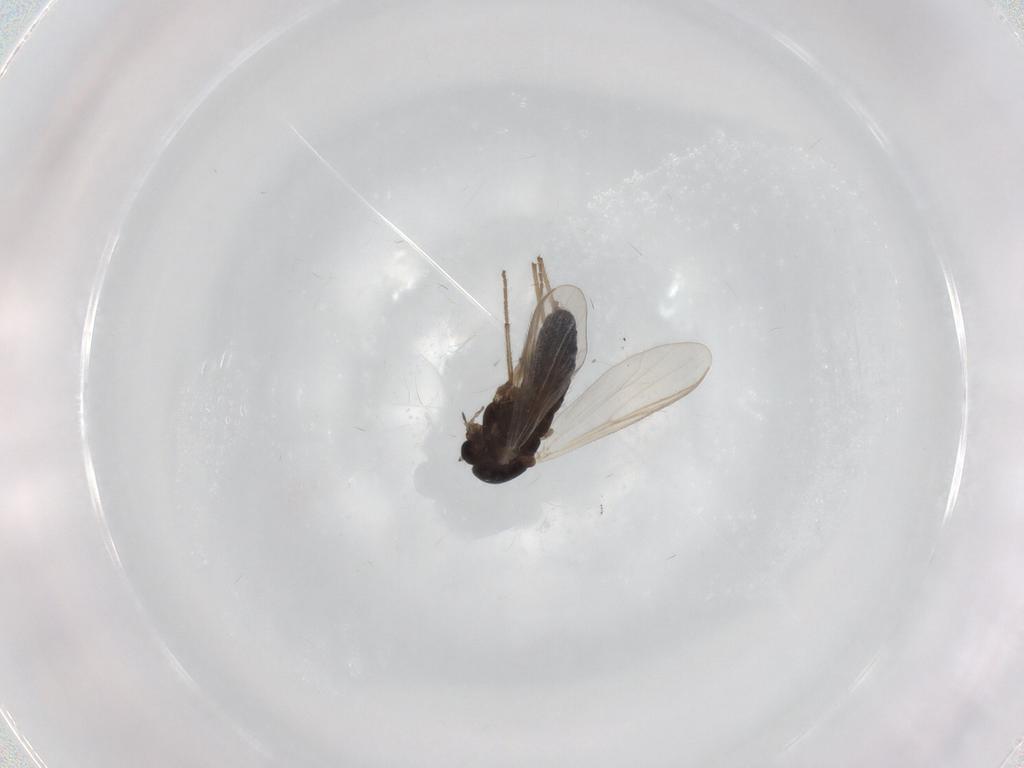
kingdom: Animalia
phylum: Arthropoda
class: Insecta
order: Diptera
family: Chironomidae
